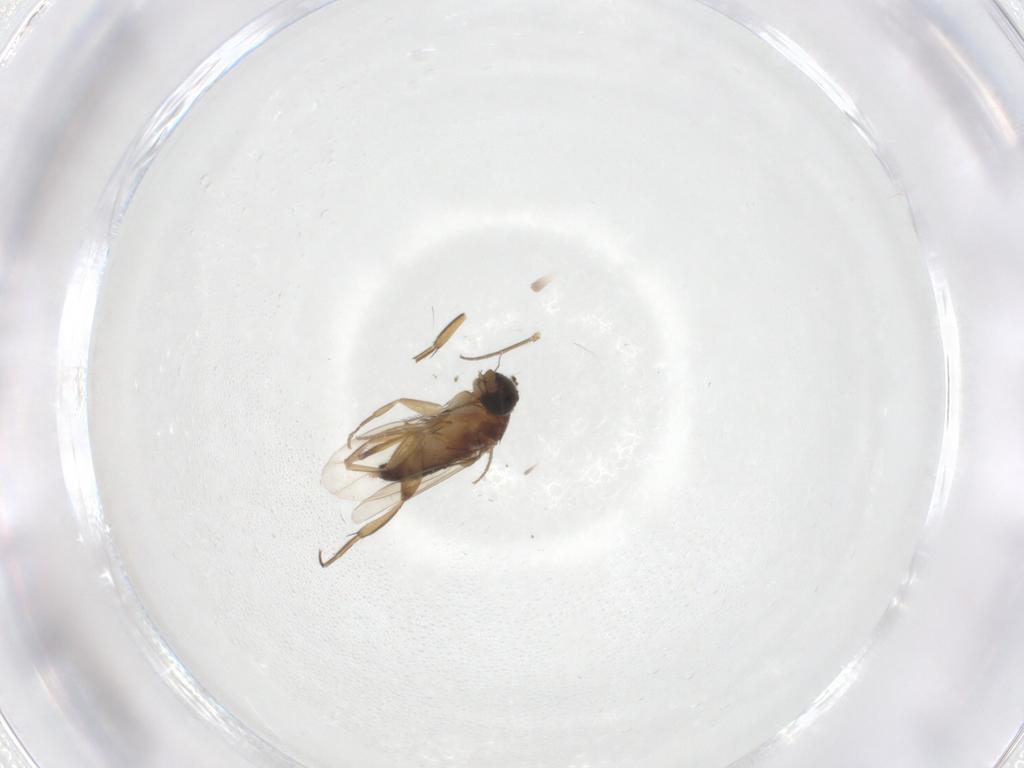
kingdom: Animalia
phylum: Arthropoda
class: Insecta
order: Diptera
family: Phoridae
